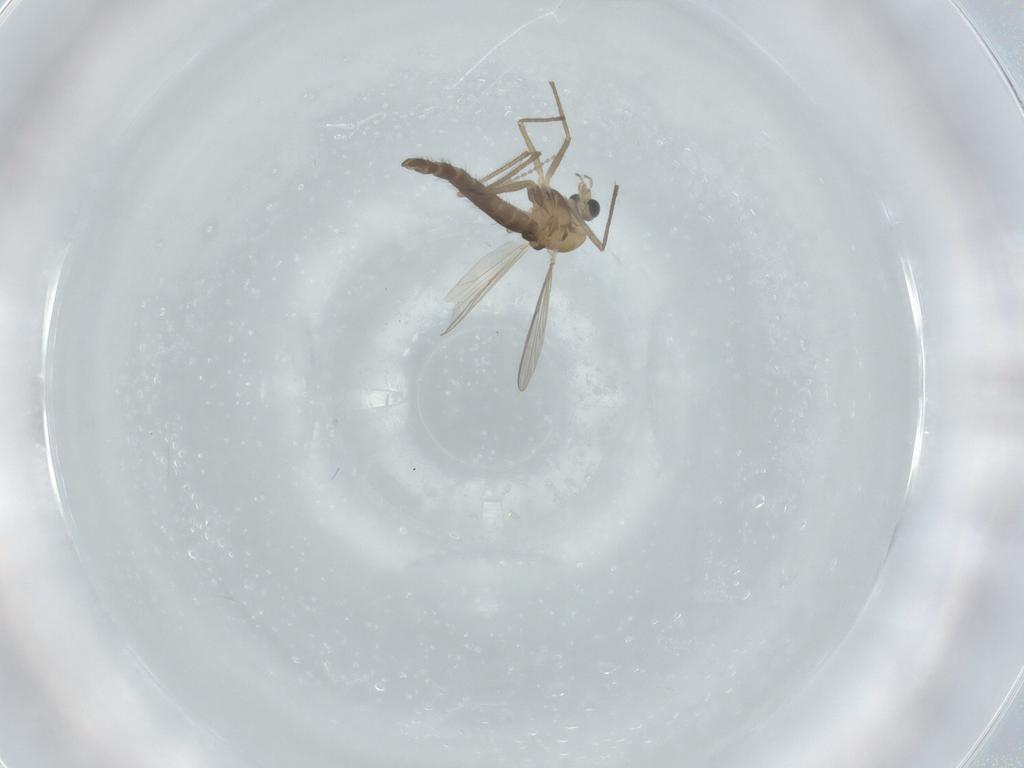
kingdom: Animalia
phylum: Arthropoda
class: Insecta
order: Diptera
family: Chironomidae
